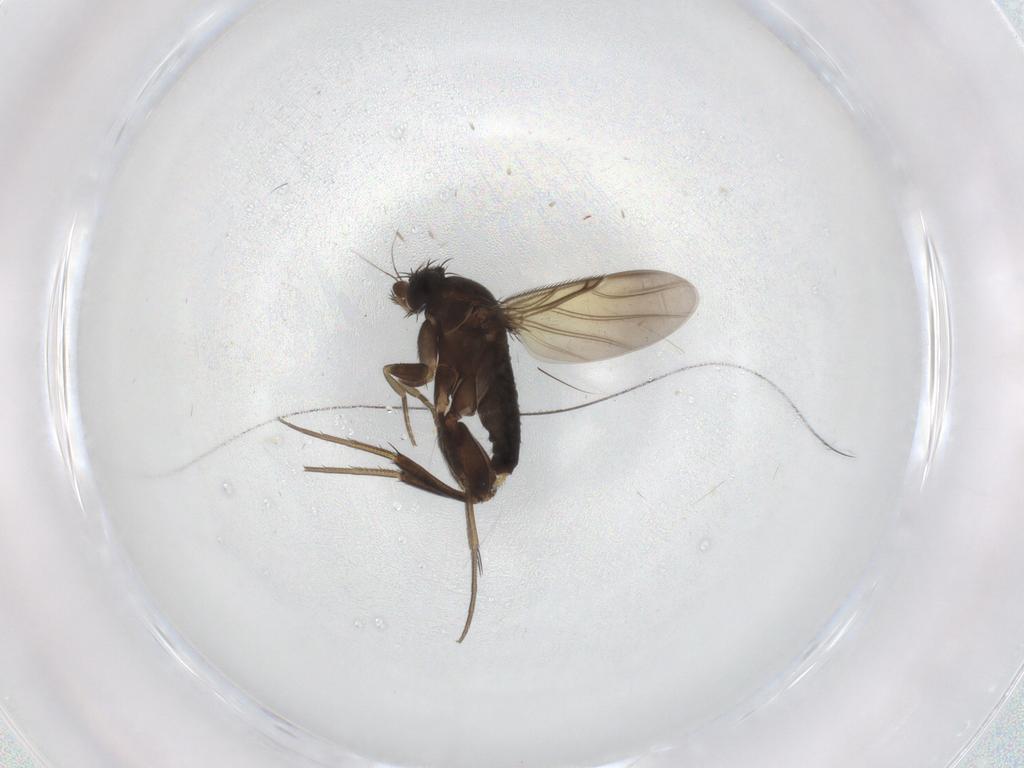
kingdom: Animalia
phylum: Arthropoda
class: Insecta
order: Diptera
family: Phoridae
